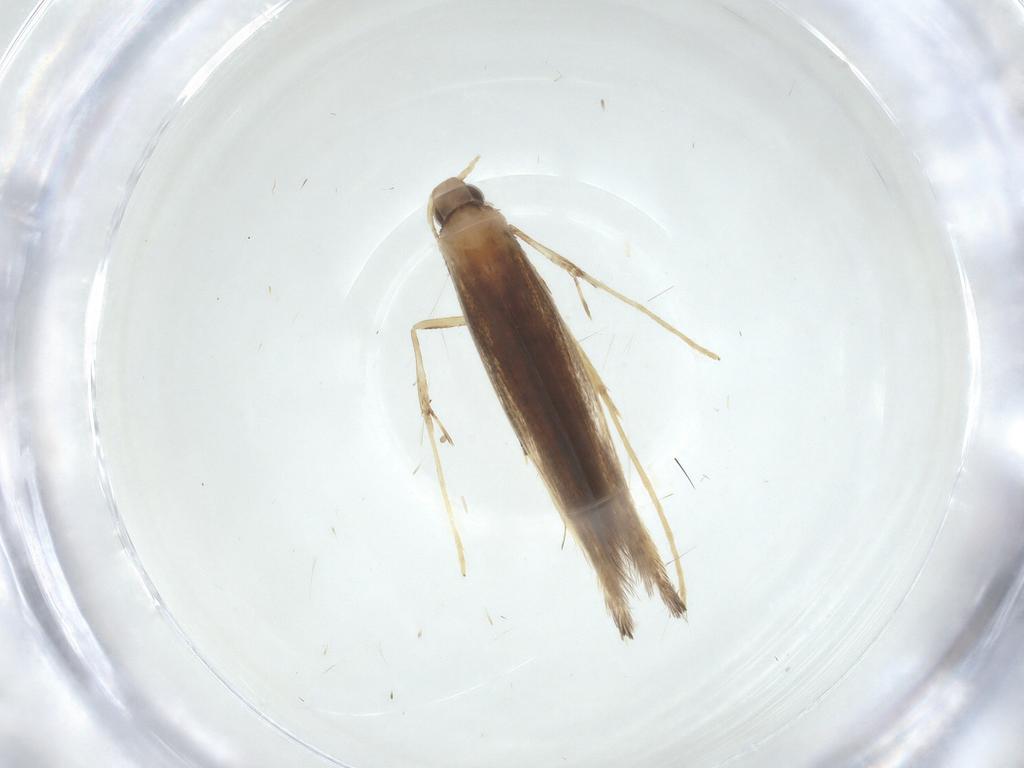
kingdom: Animalia
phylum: Arthropoda
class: Insecta
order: Lepidoptera
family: Gracillariidae
